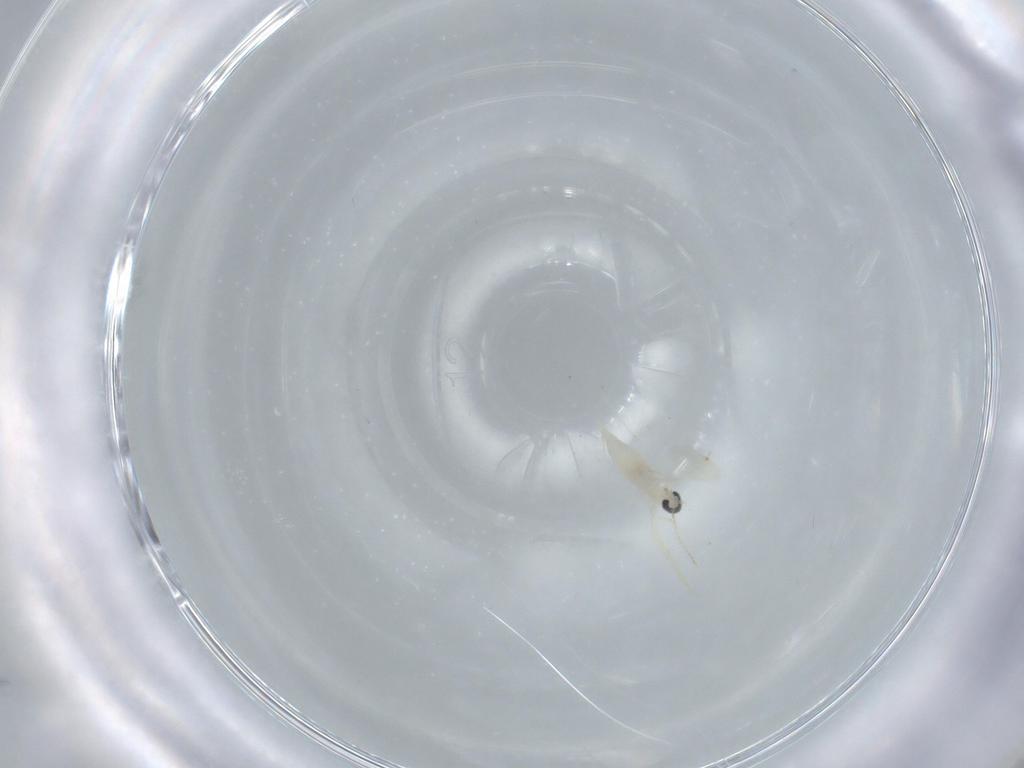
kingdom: Animalia
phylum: Arthropoda
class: Insecta
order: Diptera
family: Cecidomyiidae
